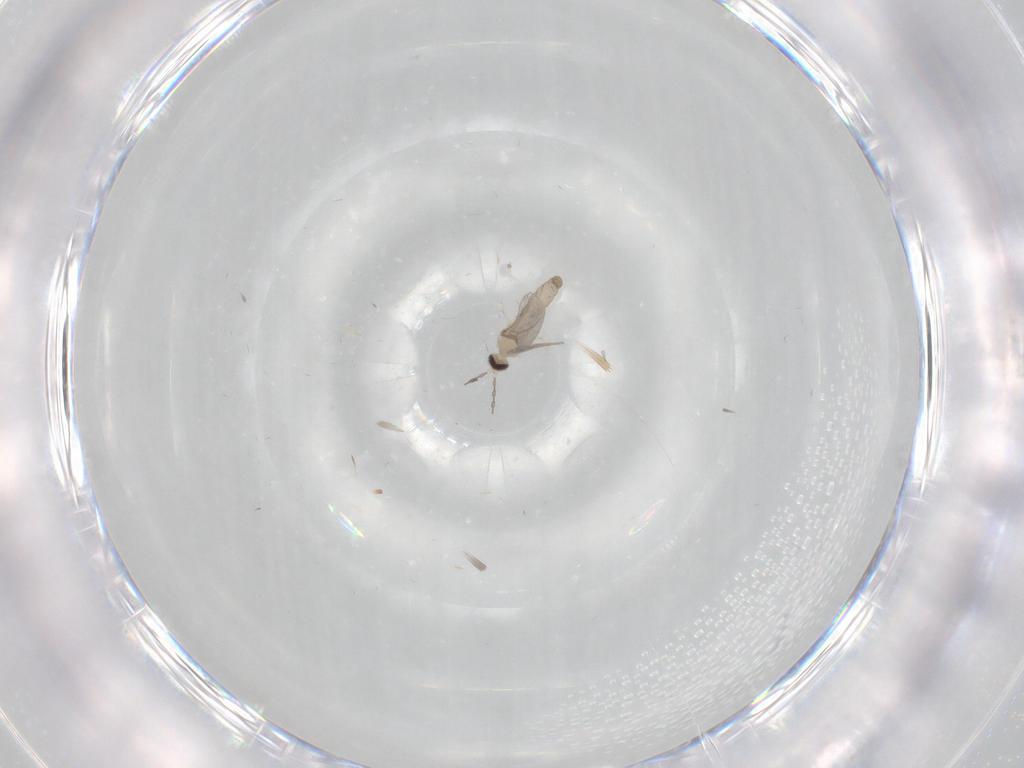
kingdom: Animalia
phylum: Arthropoda
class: Insecta
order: Diptera
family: Cecidomyiidae
